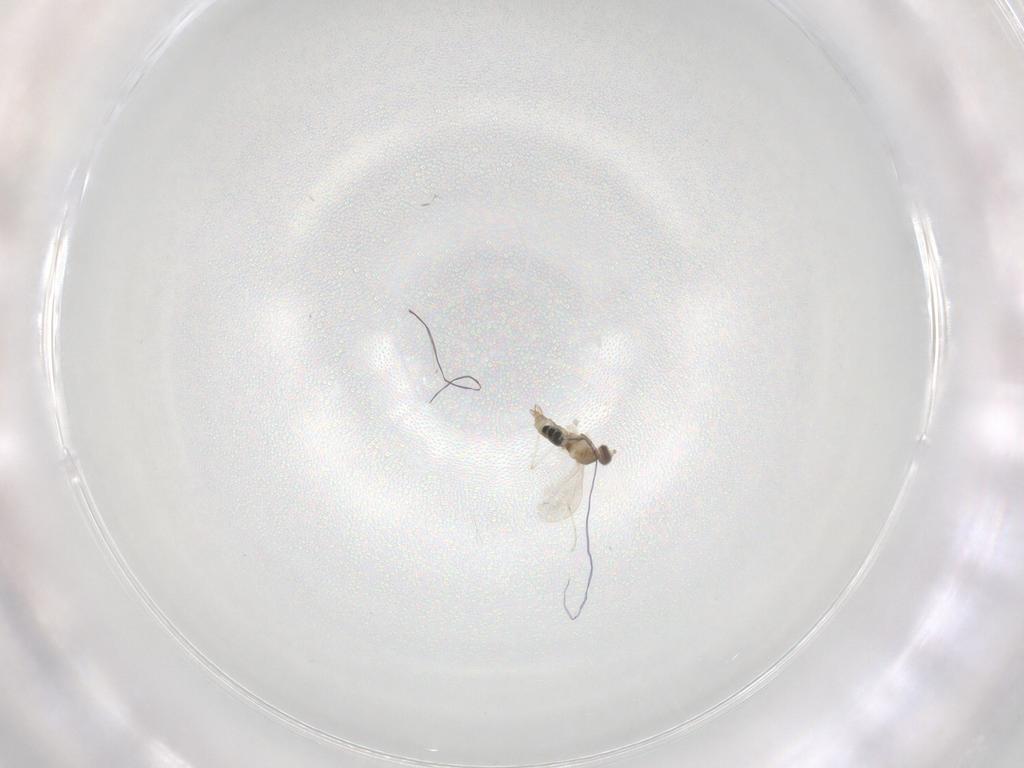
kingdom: Animalia
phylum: Arthropoda
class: Insecta
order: Diptera
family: Cecidomyiidae
